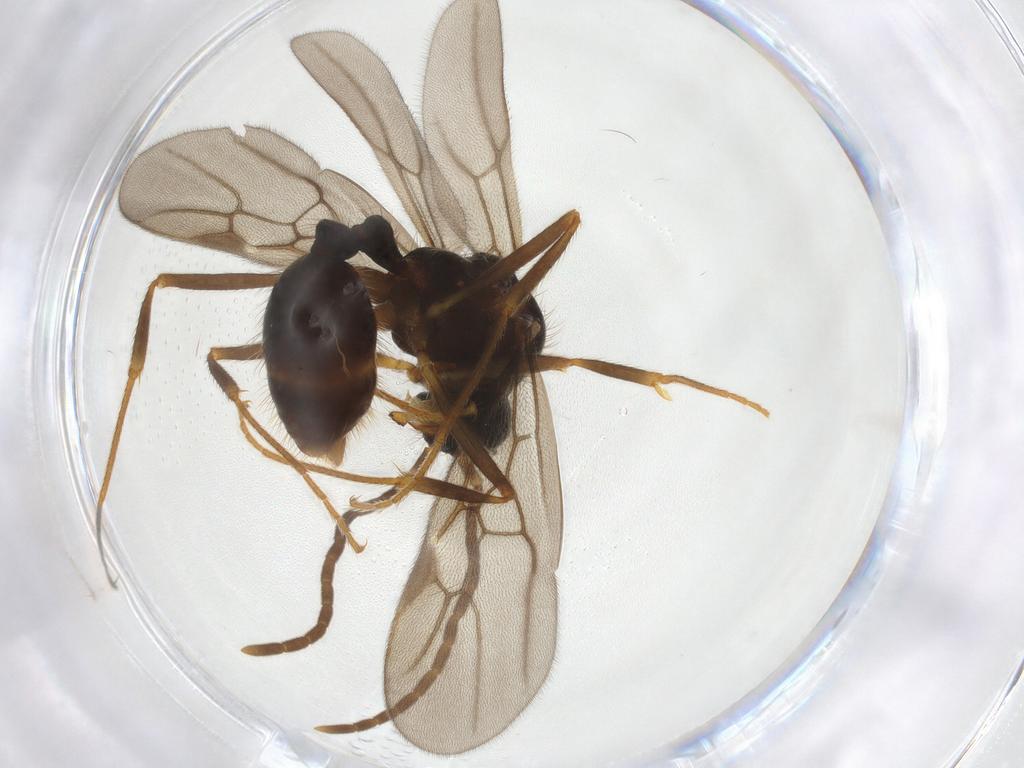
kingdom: Animalia
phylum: Arthropoda
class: Insecta
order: Hymenoptera
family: Formicidae
